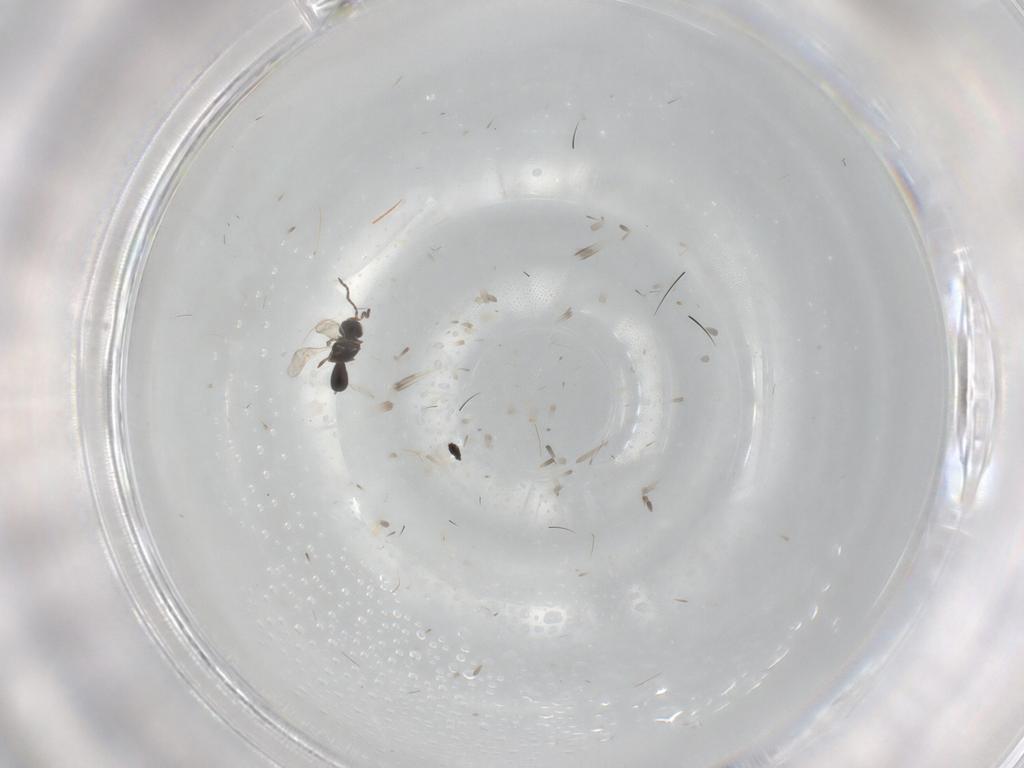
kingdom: Animalia
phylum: Arthropoda
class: Insecta
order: Hymenoptera
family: Scelionidae
